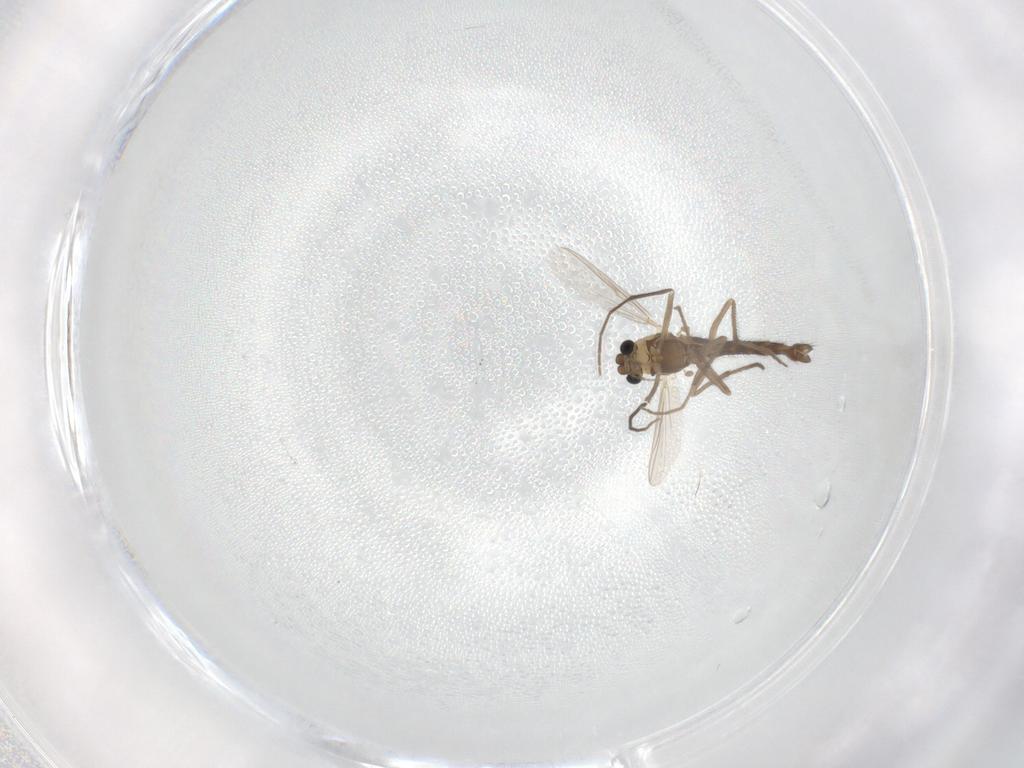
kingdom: Animalia
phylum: Arthropoda
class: Insecta
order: Diptera
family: Chironomidae
